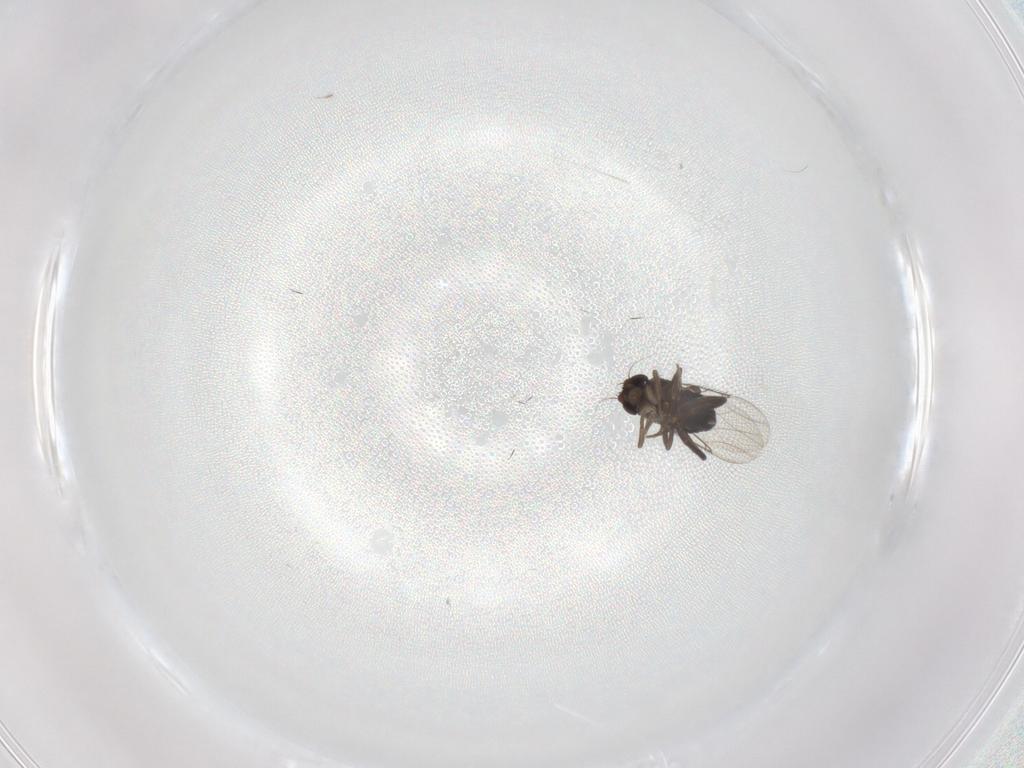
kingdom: Animalia
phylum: Arthropoda
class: Insecta
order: Diptera
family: Phoridae
